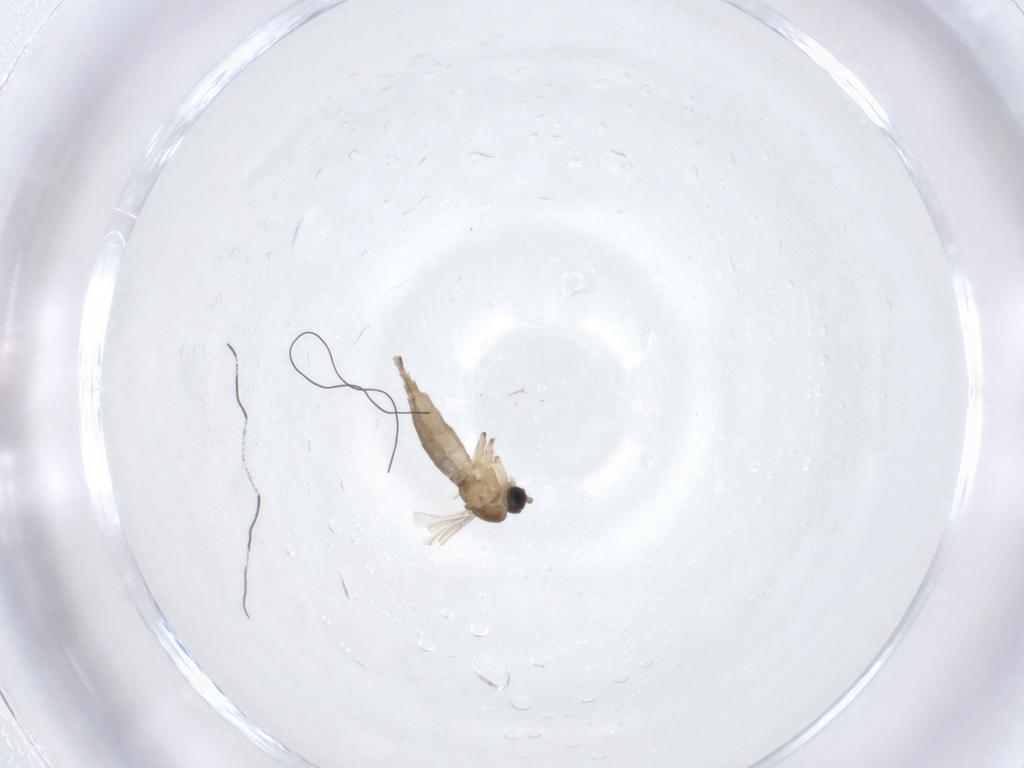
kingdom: Animalia
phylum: Arthropoda
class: Insecta
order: Diptera
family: Sciaridae
